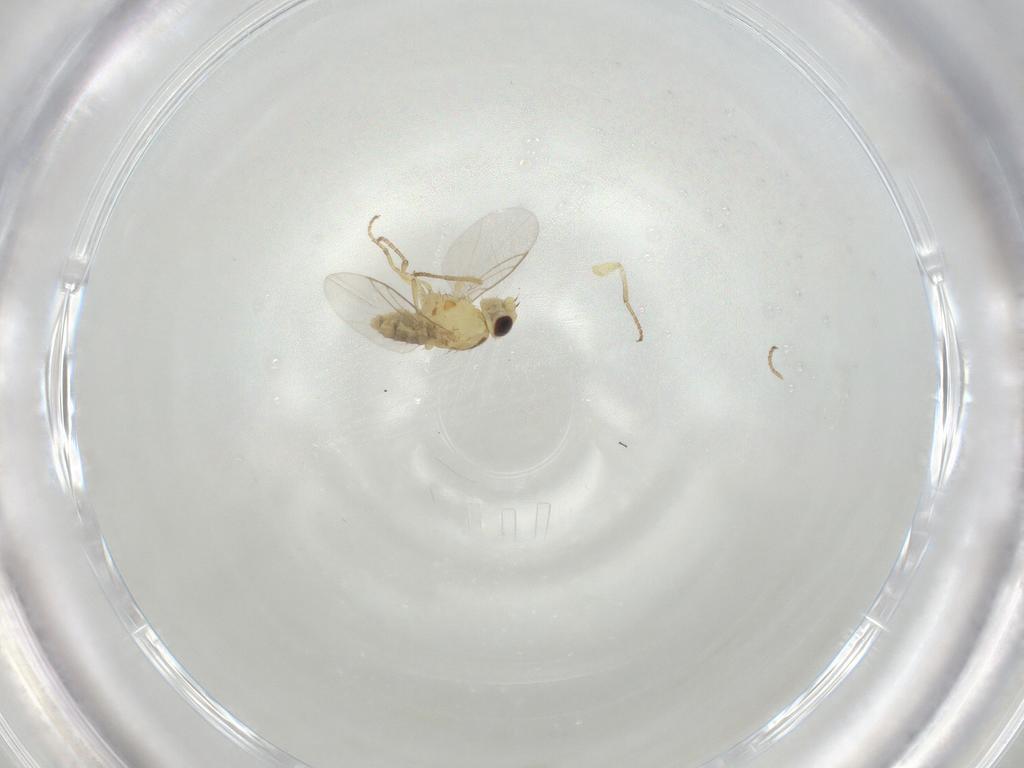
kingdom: Animalia
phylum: Arthropoda
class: Insecta
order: Diptera
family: Agromyzidae
